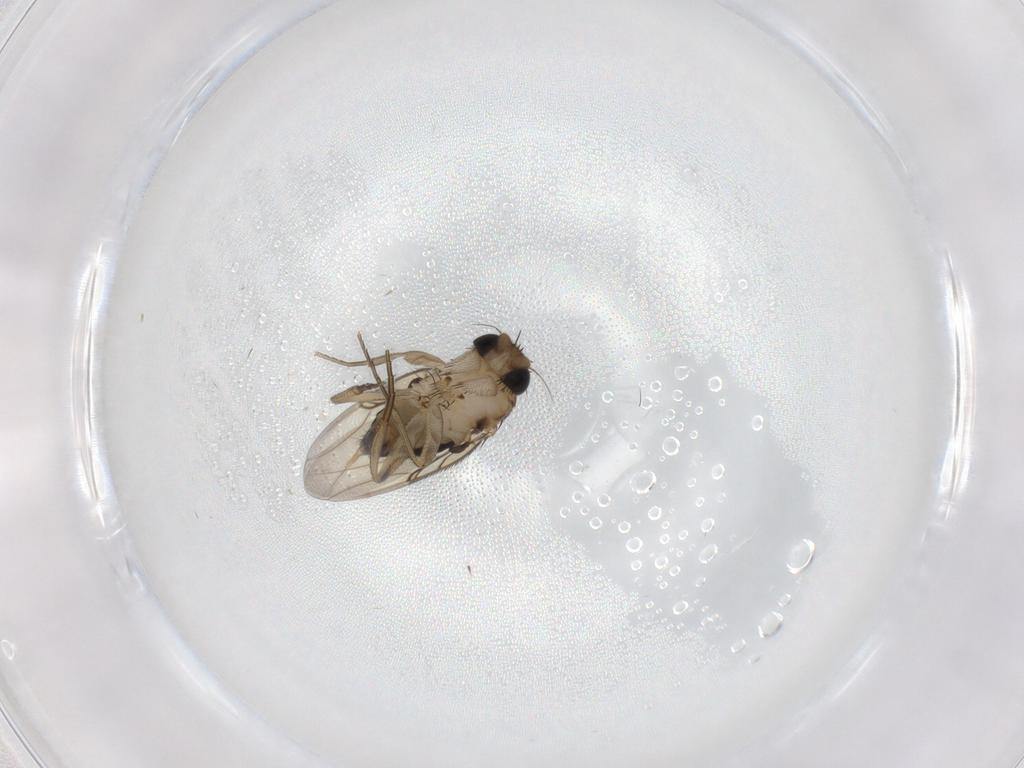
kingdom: Animalia
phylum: Arthropoda
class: Insecta
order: Diptera
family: Phoridae
